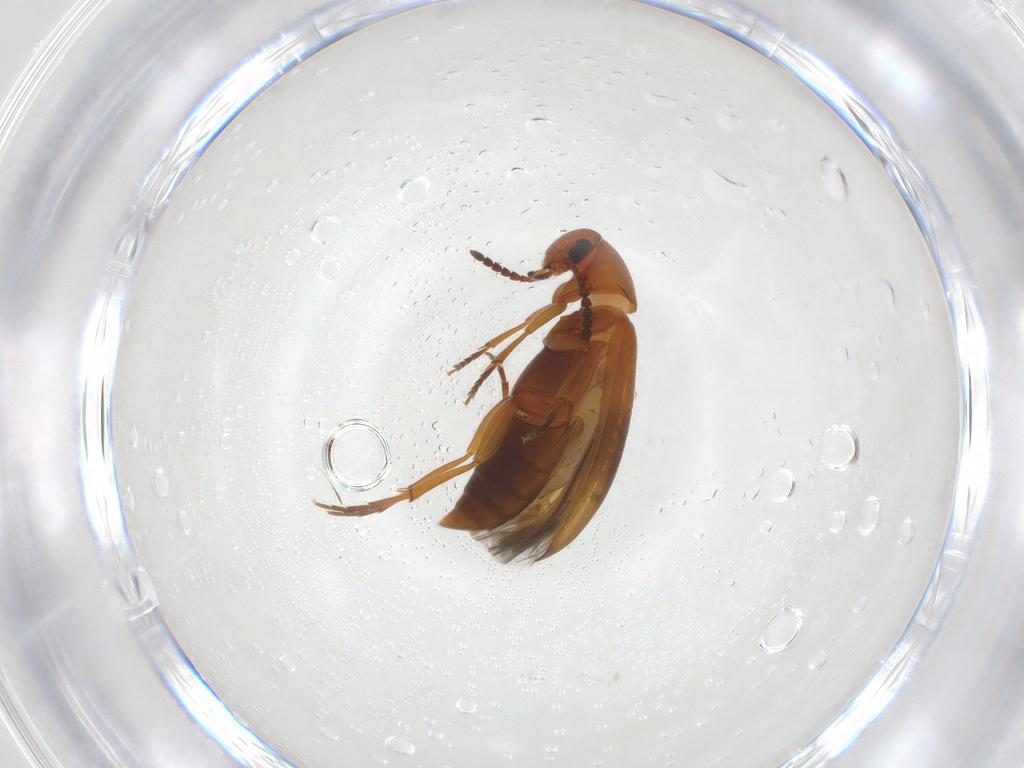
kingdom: Animalia
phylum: Arthropoda
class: Insecta
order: Coleoptera
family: Scraptiidae
